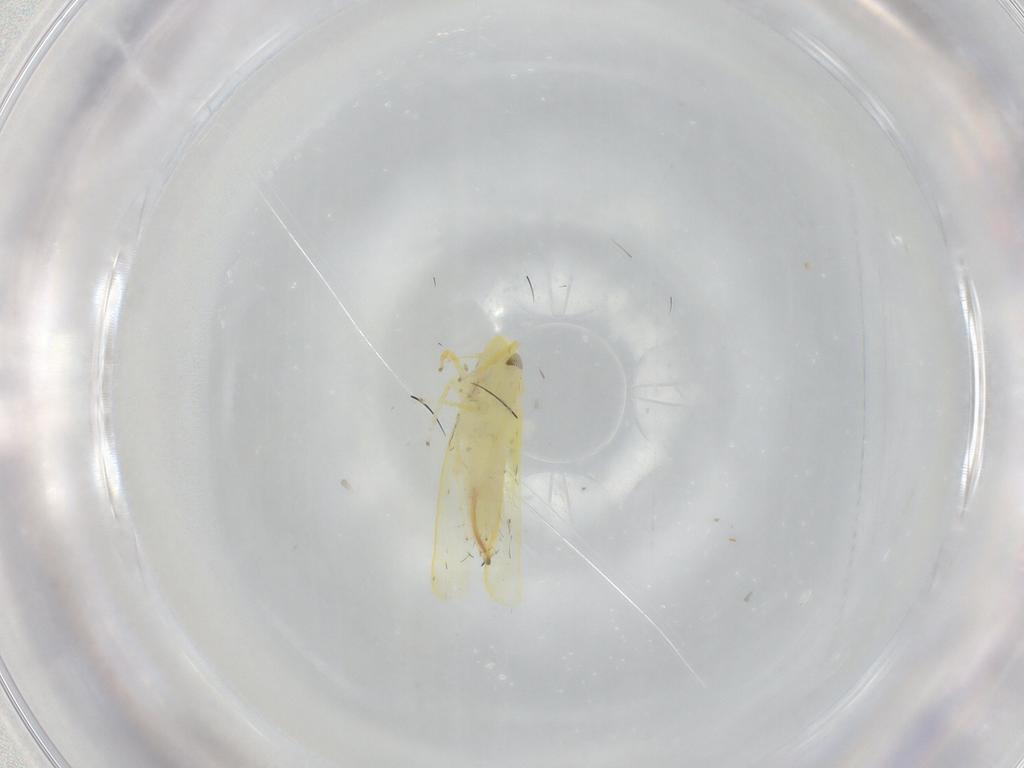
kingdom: Animalia
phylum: Arthropoda
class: Insecta
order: Hemiptera
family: Cicadellidae
